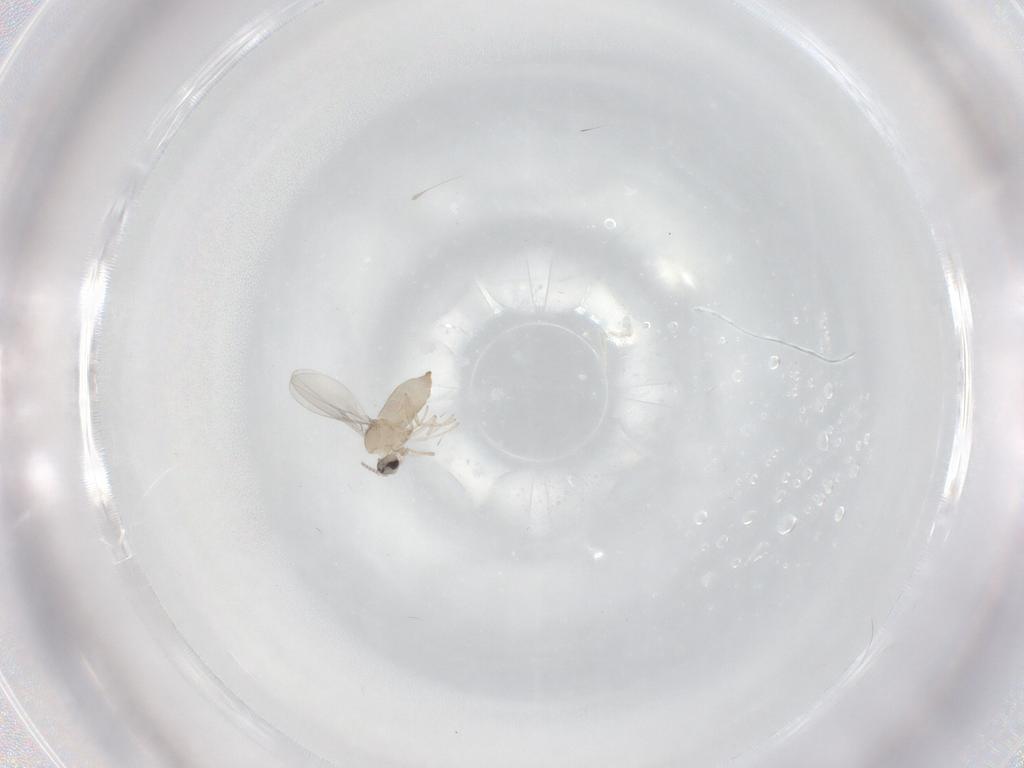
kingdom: Animalia
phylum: Arthropoda
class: Insecta
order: Diptera
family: Cecidomyiidae
